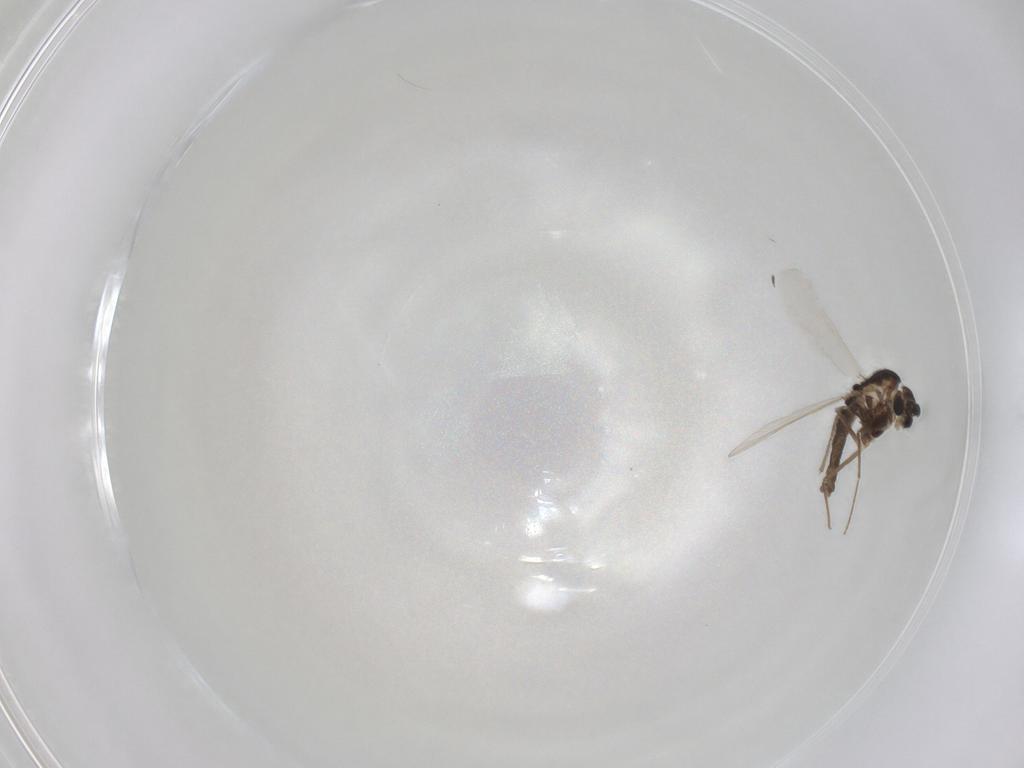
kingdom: Animalia
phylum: Arthropoda
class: Insecta
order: Diptera
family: Chironomidae
